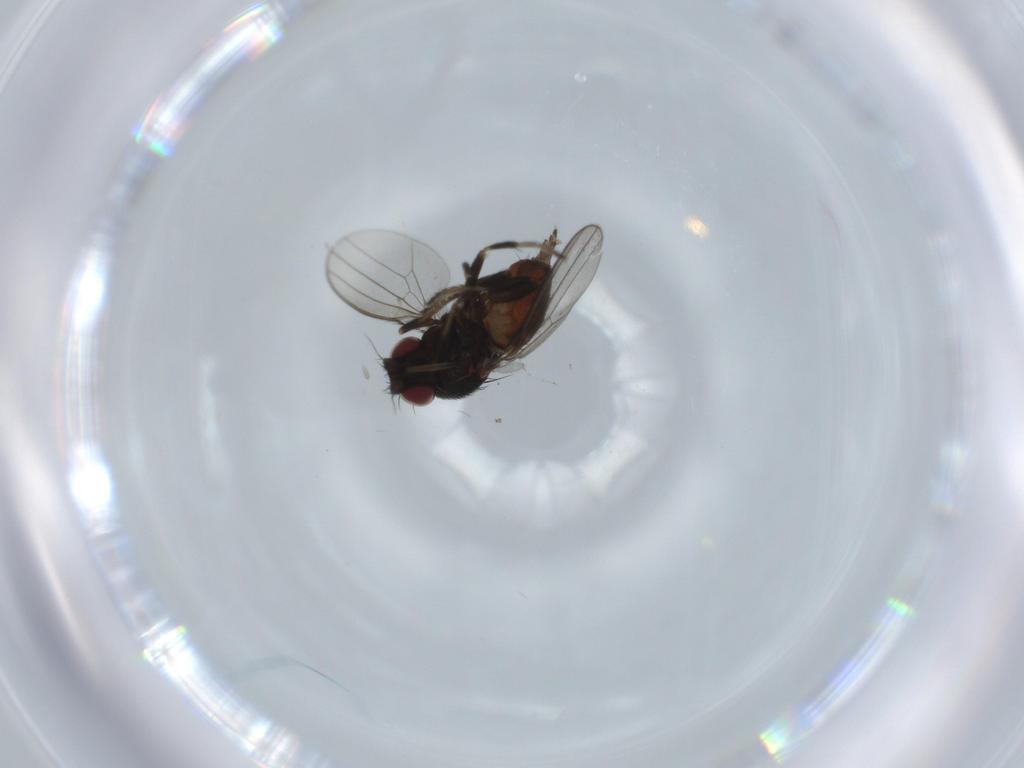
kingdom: Animalia
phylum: Arthropoda
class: Insecta
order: Diptera
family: Milichiidae
